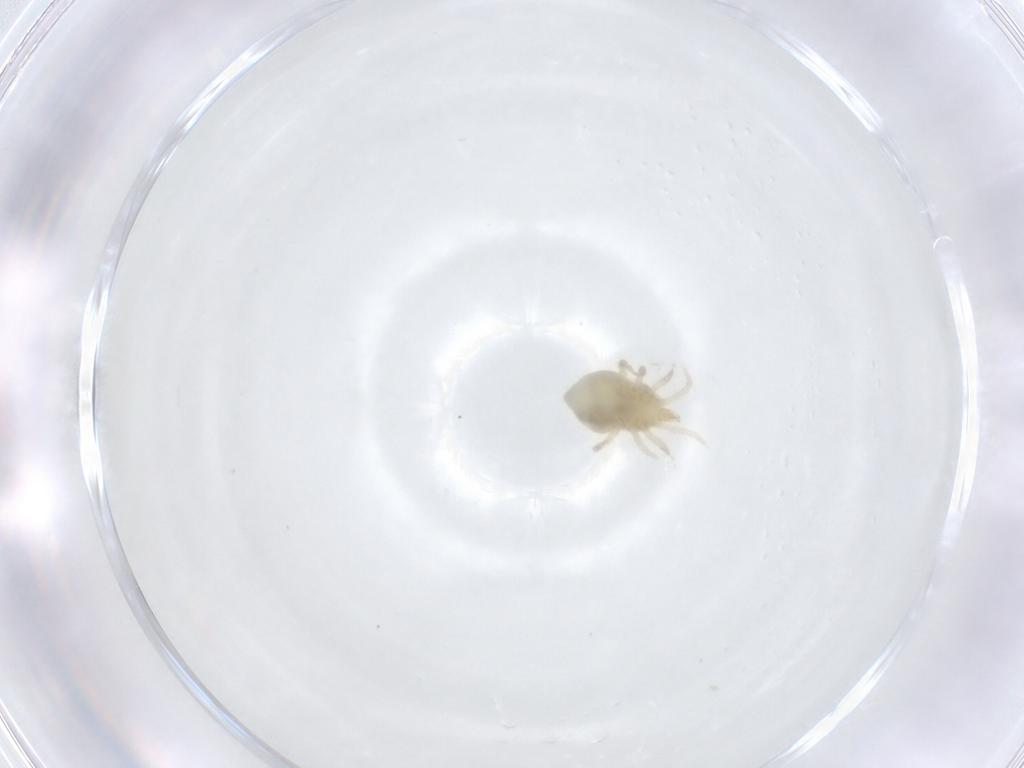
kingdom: Animalia
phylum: Arthropoda
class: Arachnida
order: Mesostigmata
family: Melicharidae
